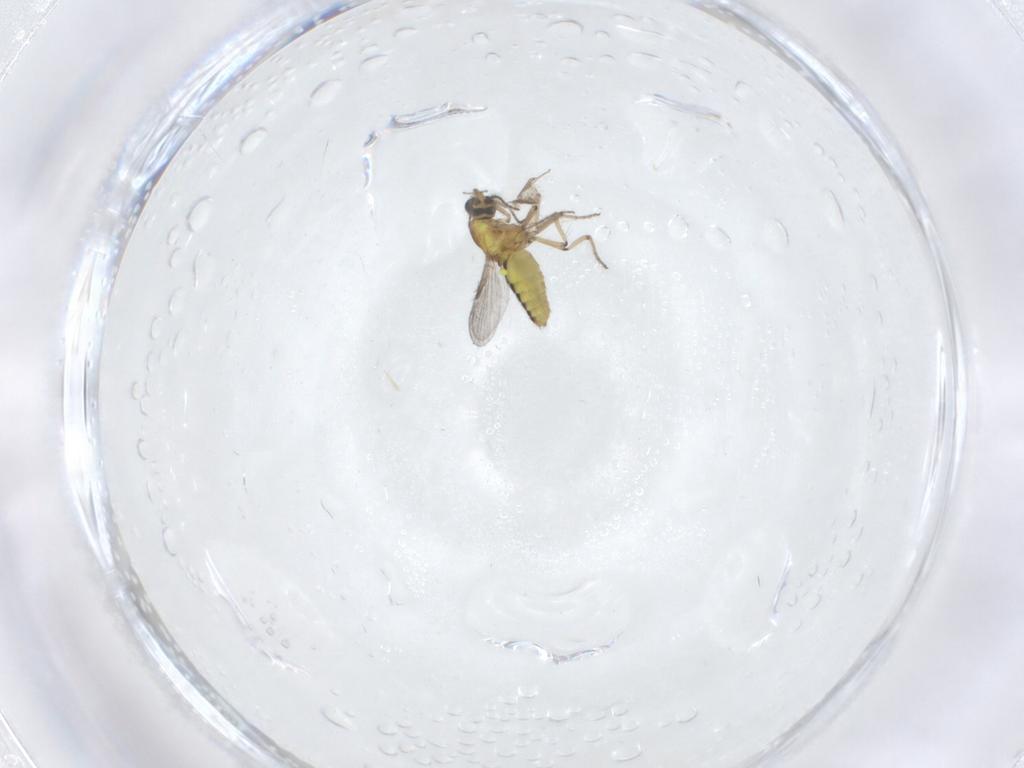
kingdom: Animalia
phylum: Arthropoda
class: Insecta
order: Diptera
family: Ceratopogonidae
